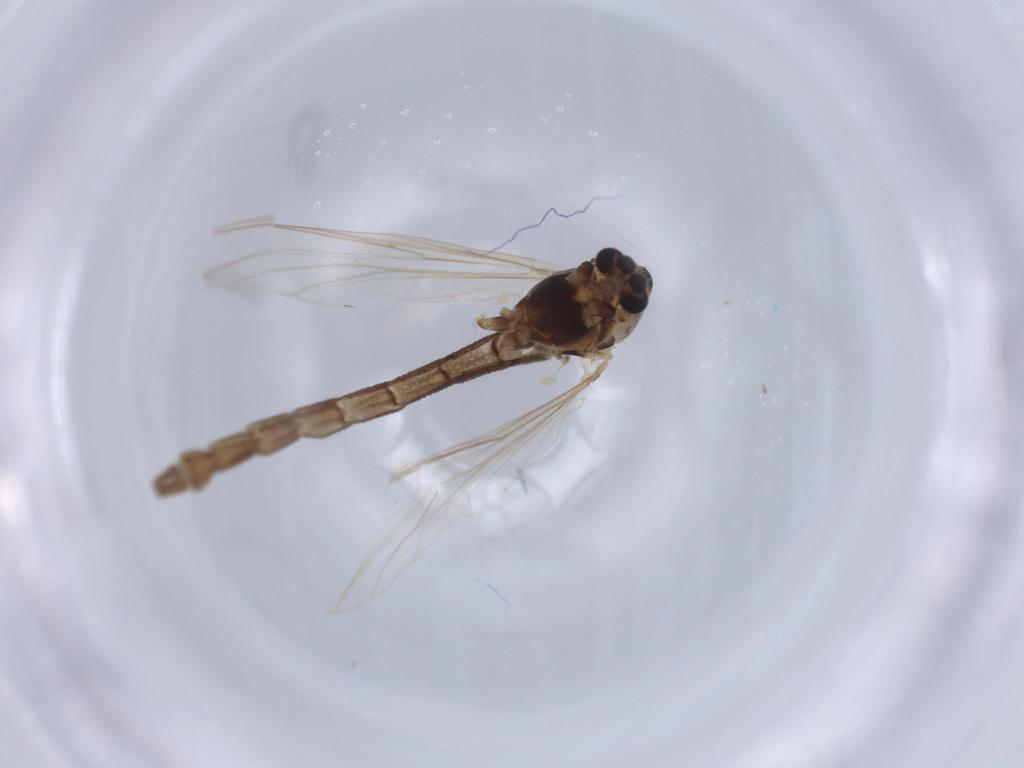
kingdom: Animalia
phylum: Arthropoda
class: Insecta
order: Diptera
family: Chironomidae
